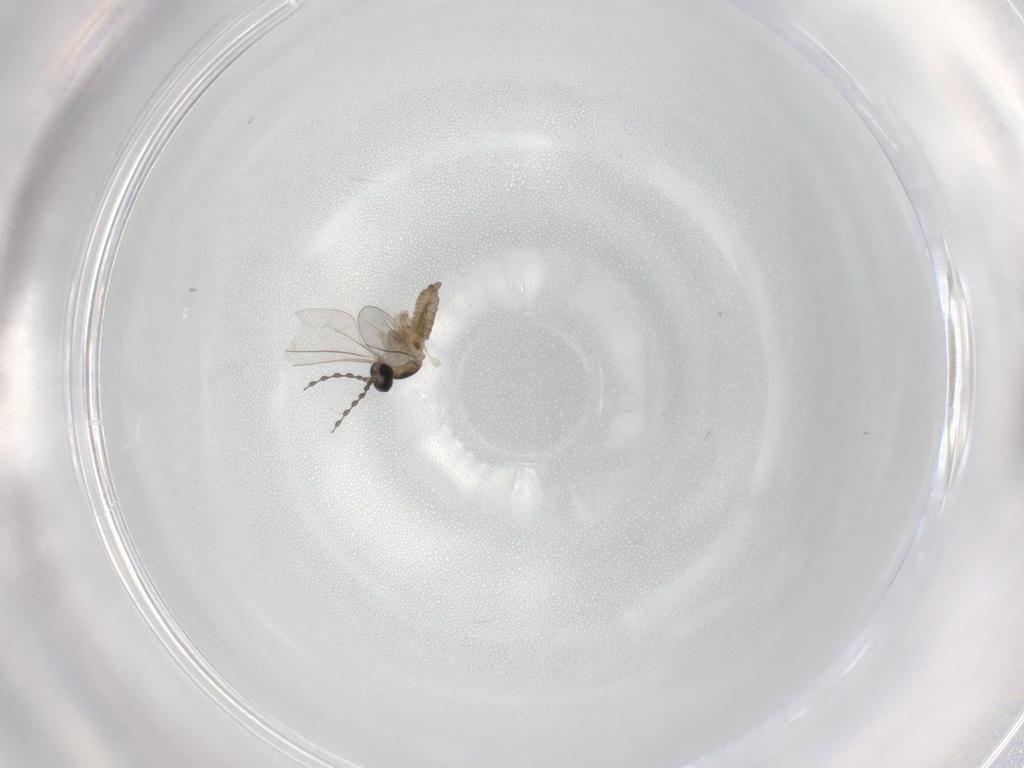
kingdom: Animalia
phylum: Arthropoda
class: Insecta
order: Diptera
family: Cecidomyiidae
